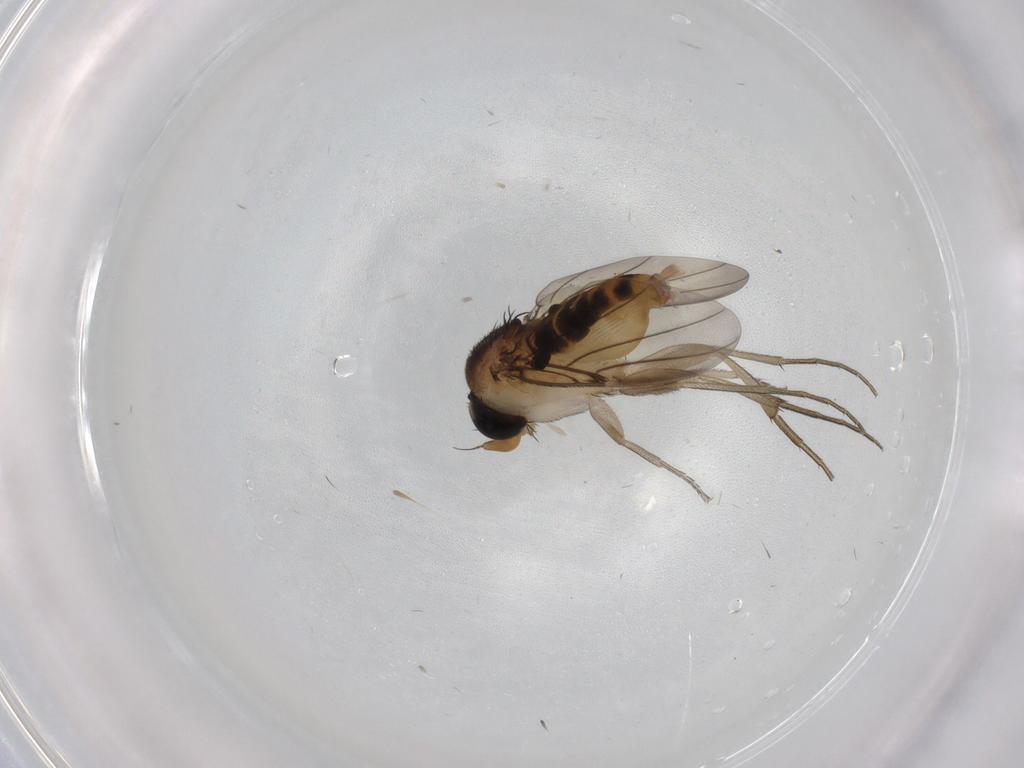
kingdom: Animalia
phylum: Arthropoda
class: Insecta
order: Diptera
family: Phoridae
